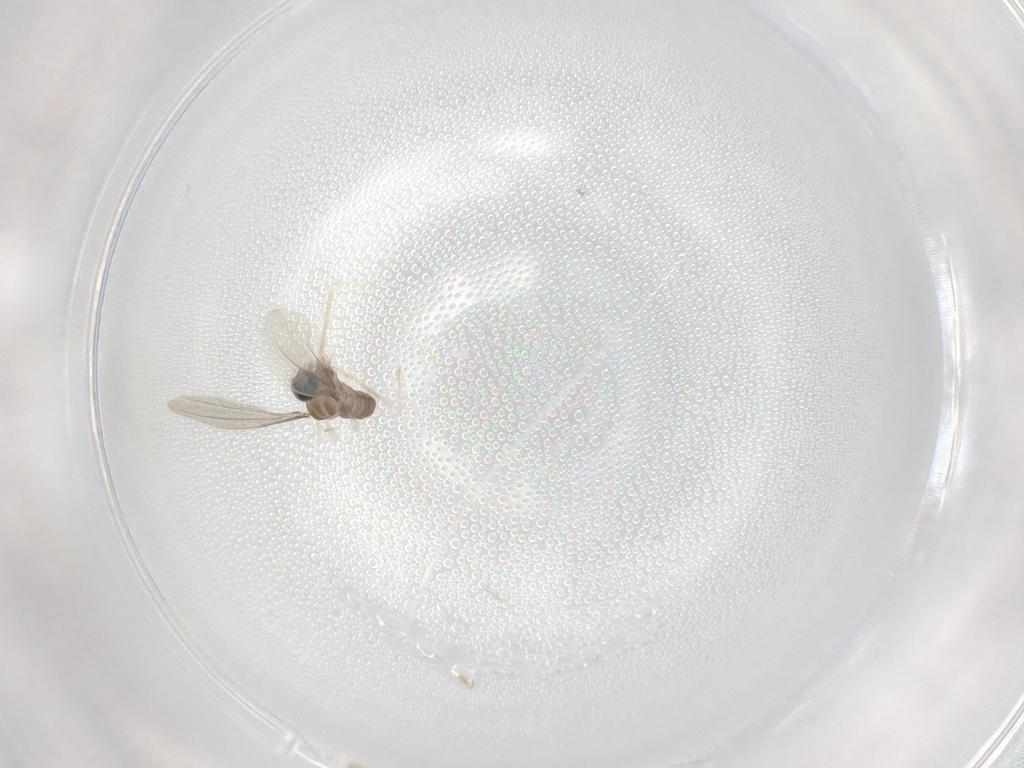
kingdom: Animalia
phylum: Arthropoda
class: Insecta
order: Diptera
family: Cecidomyiidae
